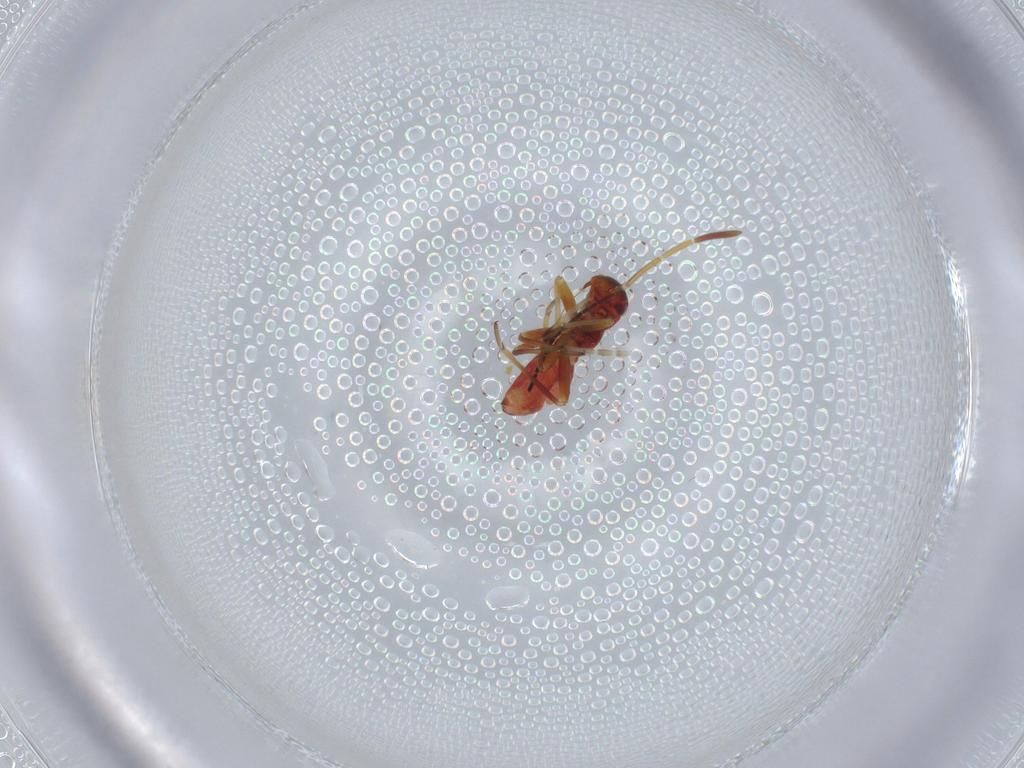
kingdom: Animalia
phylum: Arthropoda
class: Insecta
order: Hemiptera
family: Miridae
